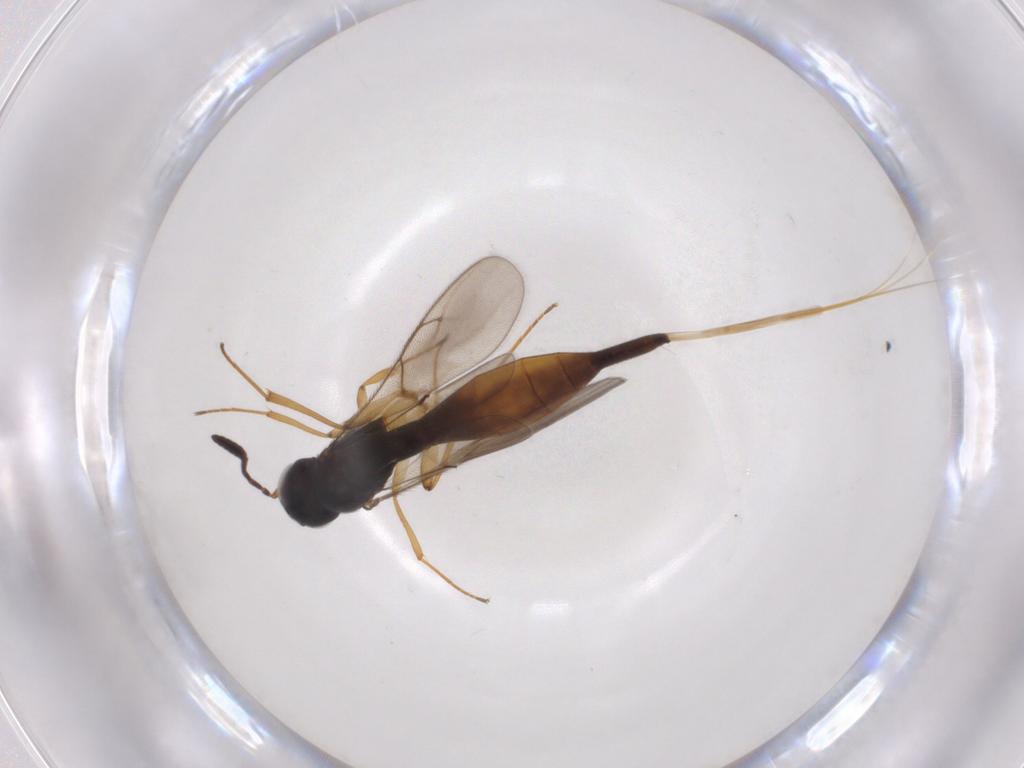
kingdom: Animalia
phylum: Arthropoda
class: Insecta
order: Hymenoptera
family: Scelionidae
